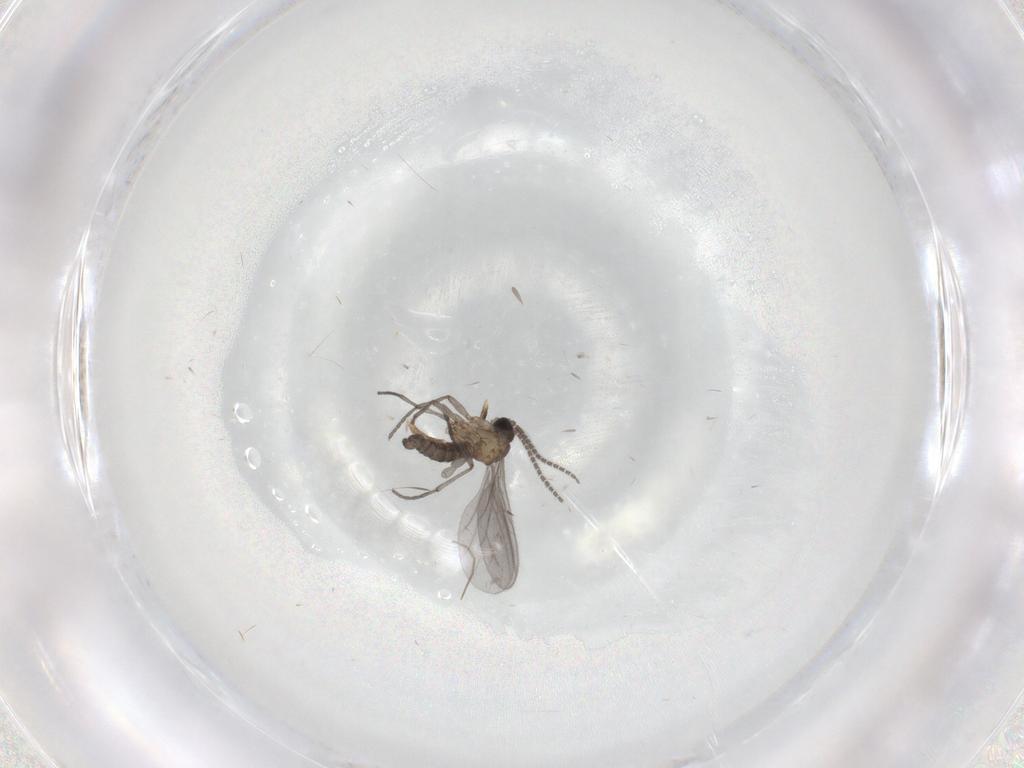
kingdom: Animalia
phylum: Arthropoda
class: Insecta
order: Diptera
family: Sciaridae
